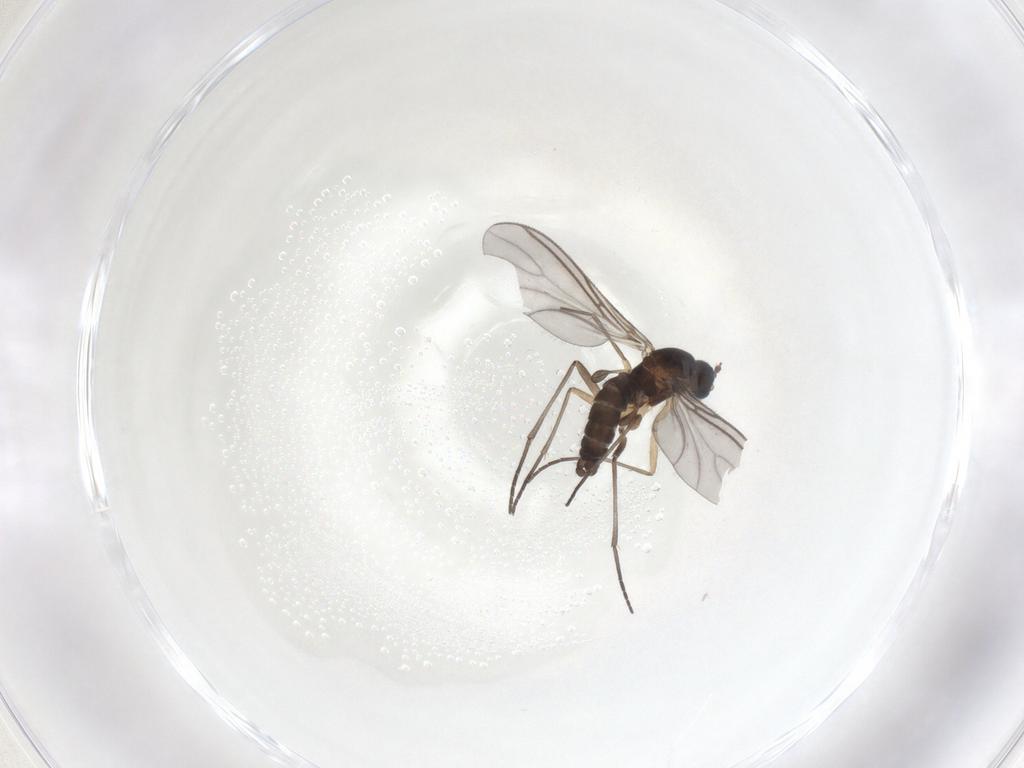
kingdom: Animalia
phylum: Arthropoda
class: Insecta
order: Diptera
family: Sciaridae
